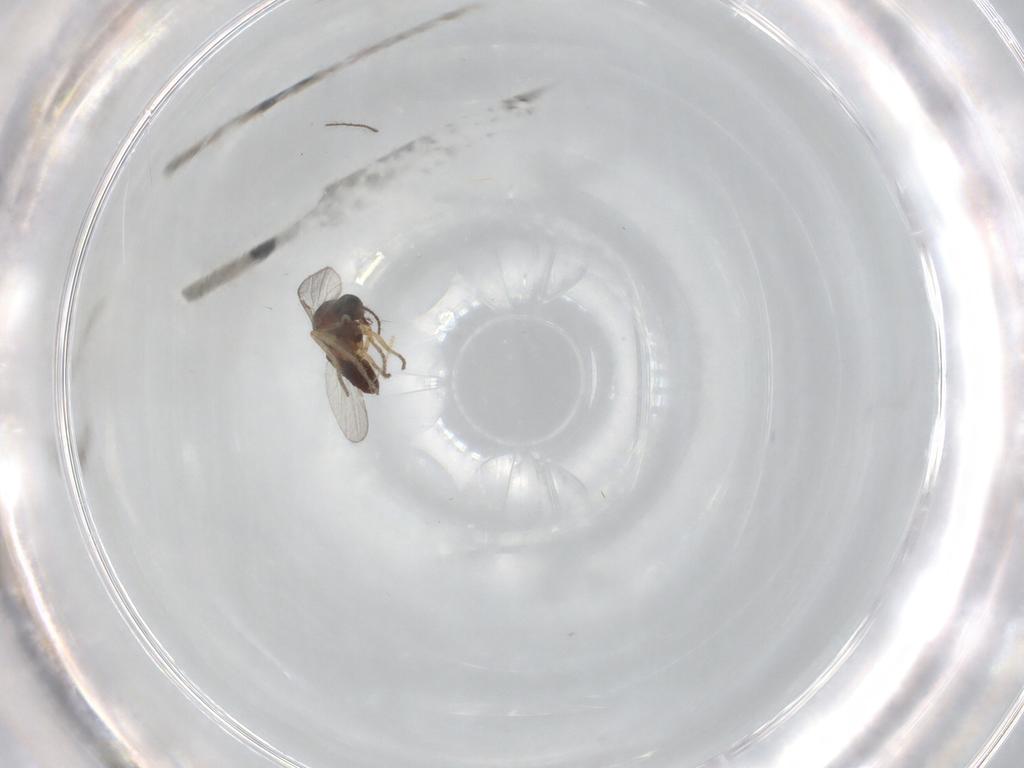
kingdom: Animalia
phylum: Arthropoda
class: Insecta
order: Diptera
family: Ceratopogonidae
